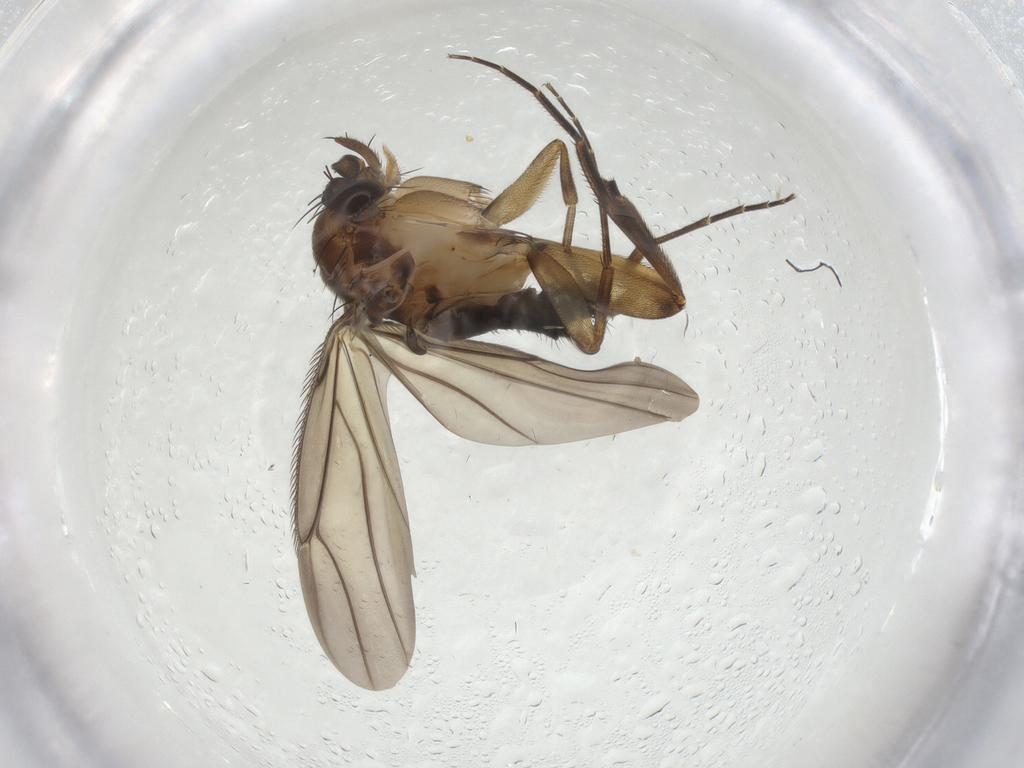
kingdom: Animalia
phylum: Arthropoda
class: Insecta
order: Diptera
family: Phoridae
